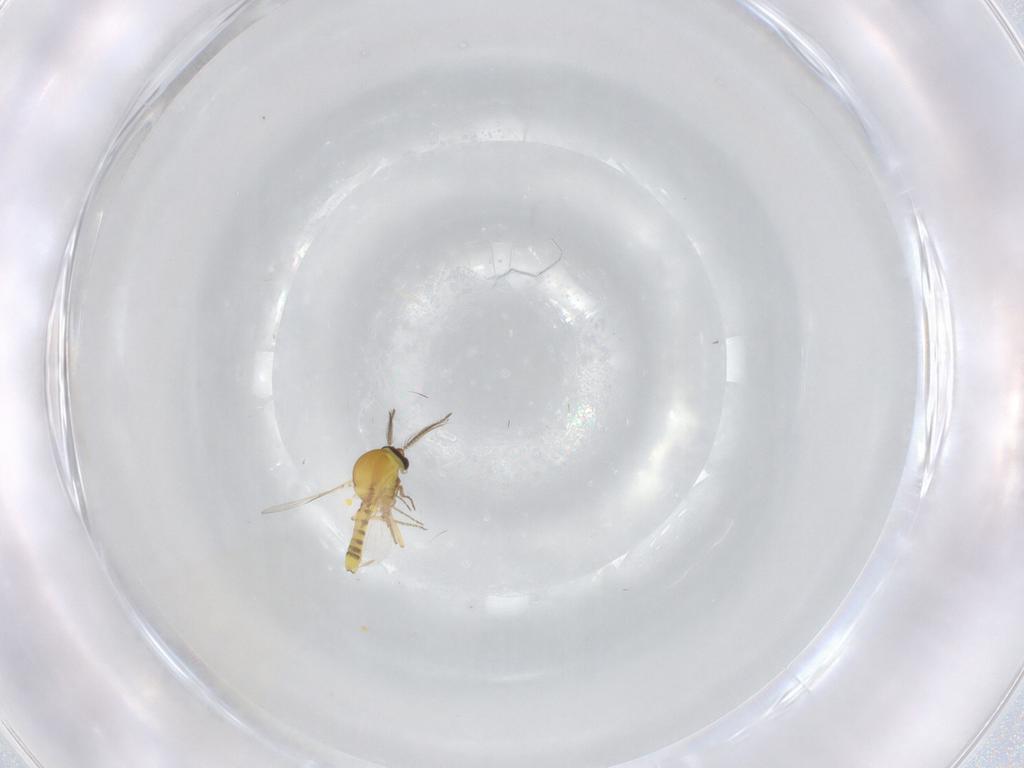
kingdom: Animalia
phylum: Arthropoda
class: Insecta
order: Diptera
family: Ceratopogonidae
